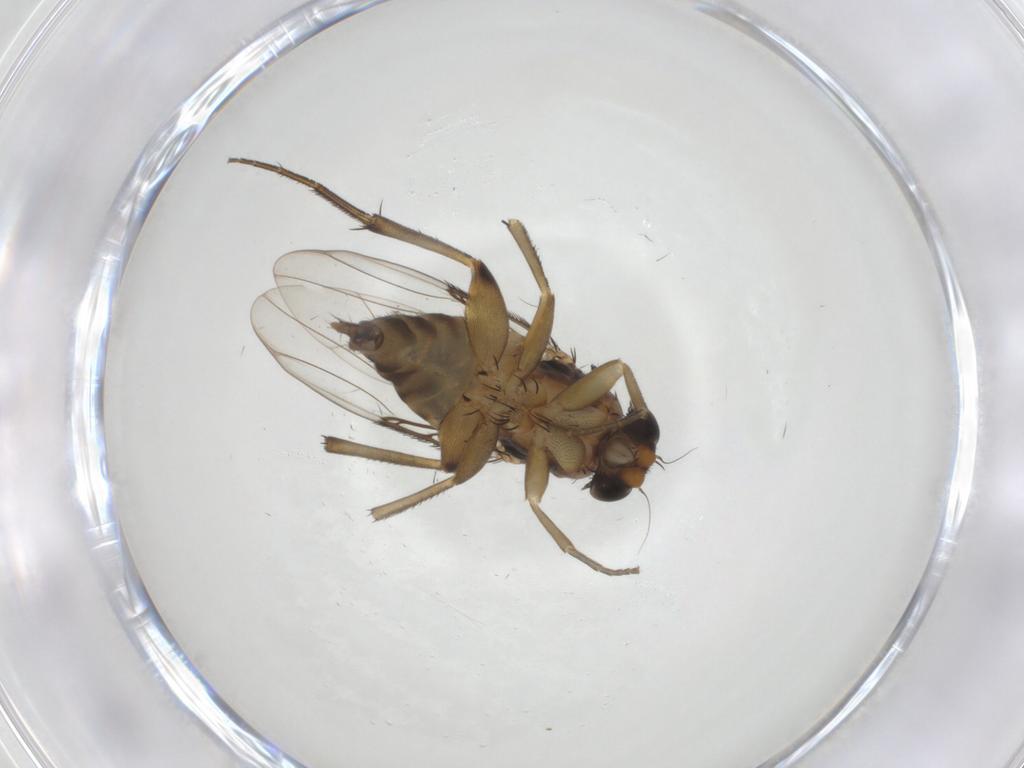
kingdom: Animalia
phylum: Arthropoda
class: Insecta
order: Diptera
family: Phoridae
